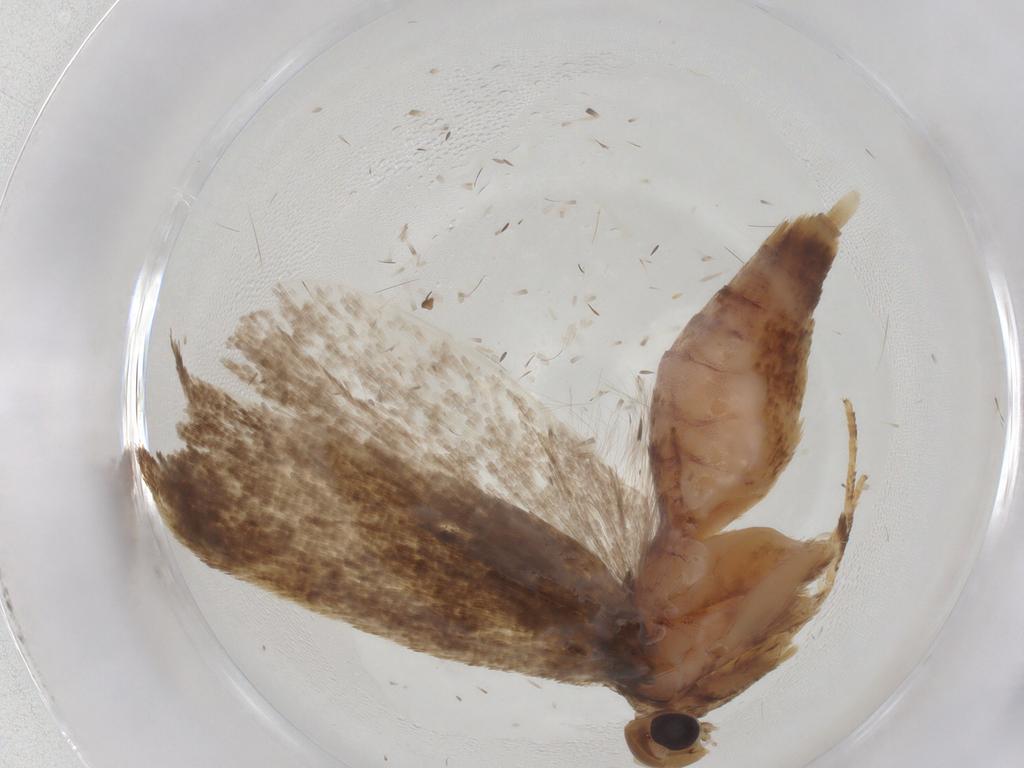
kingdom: Animalia
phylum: Arthropoda
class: Insecta
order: Lepidoptera
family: Gelechiidae
